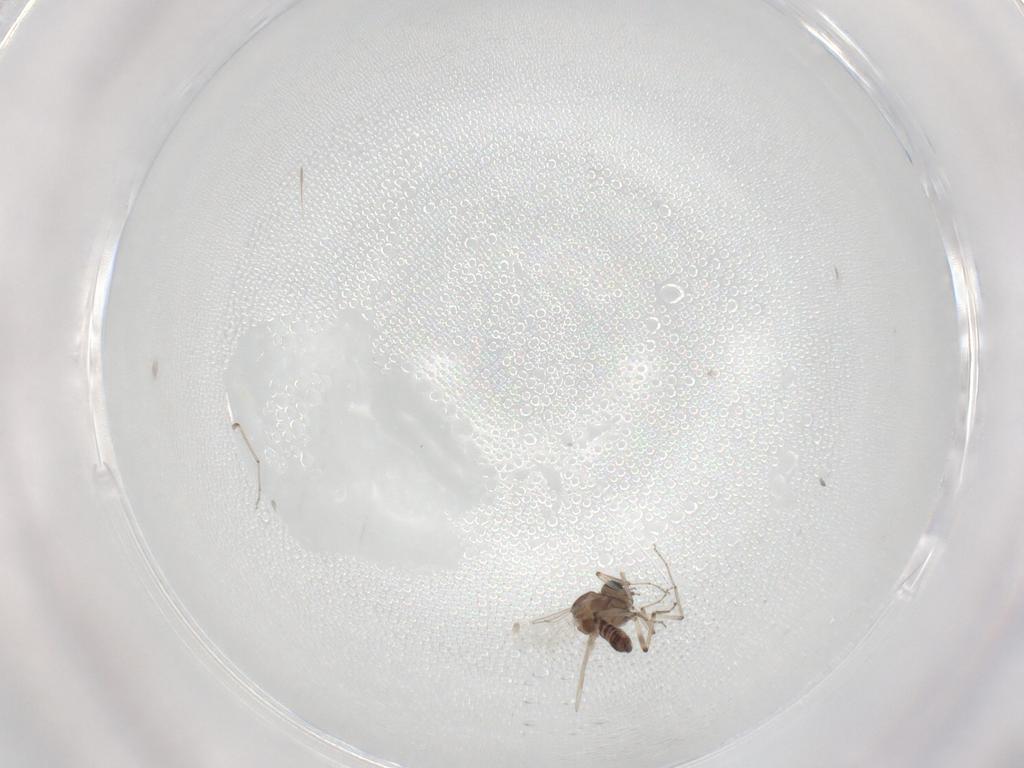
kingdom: Animalia
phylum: Arthropoda
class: Insecta
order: Diptera
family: Ceratopogonidae
